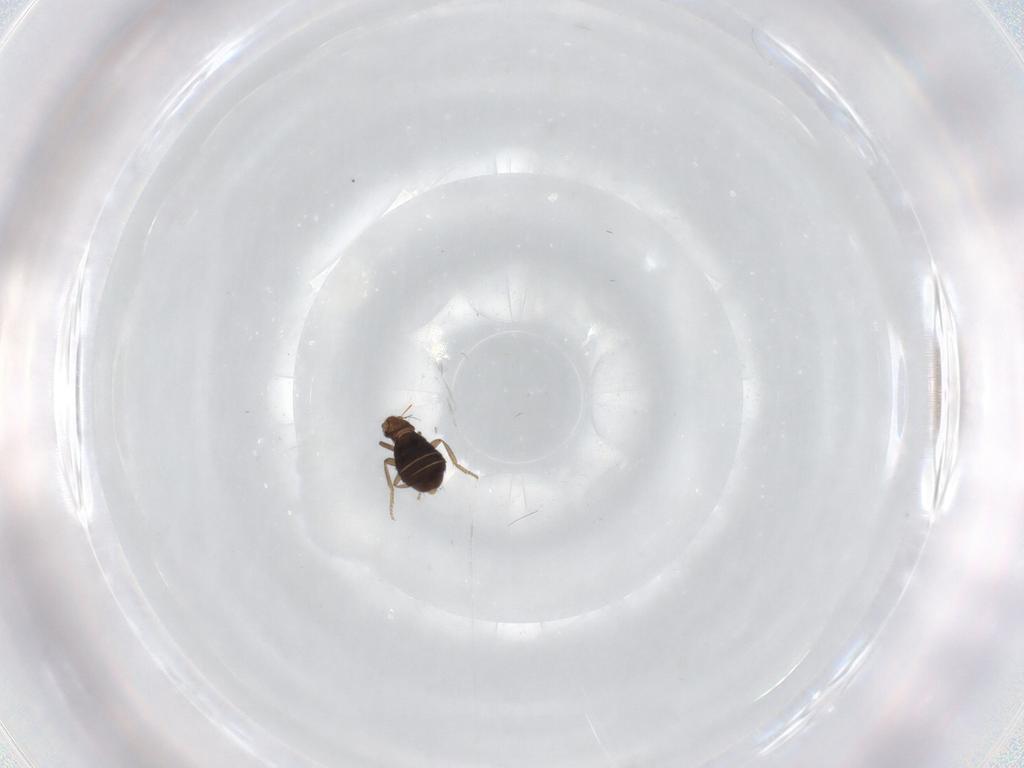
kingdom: Animalia
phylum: Arthropoda
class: Insecta
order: Diptera
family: Phoridae
